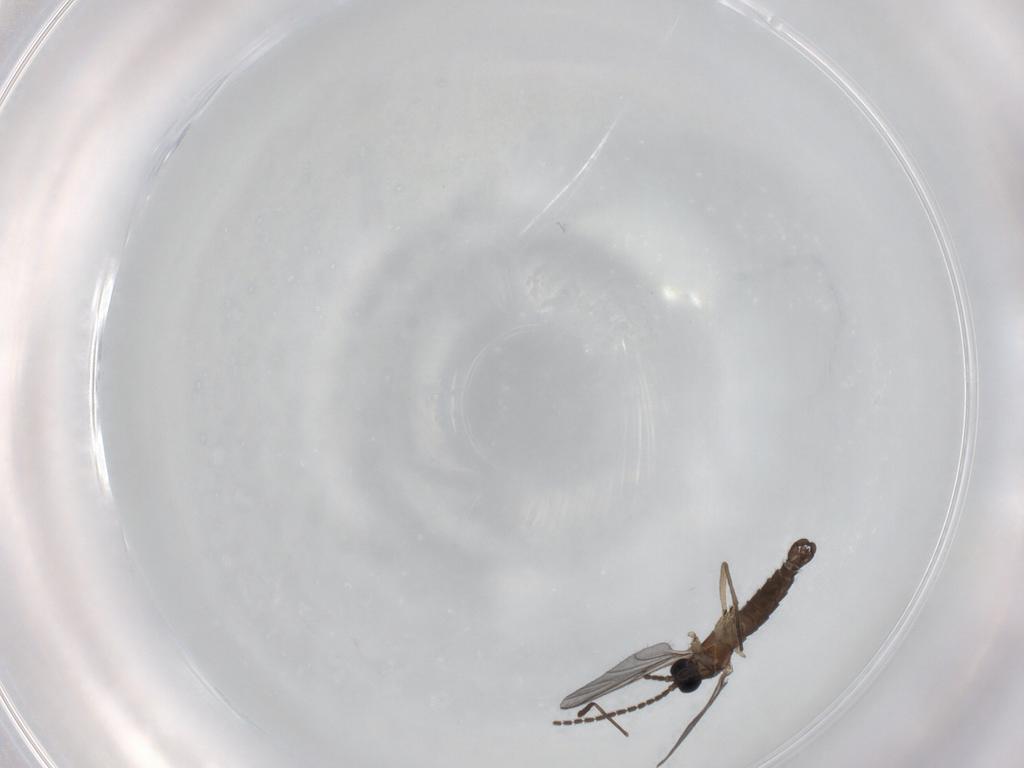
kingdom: Animalia
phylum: Arthropoda
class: Insecta
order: Diptera
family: Sciaridae
